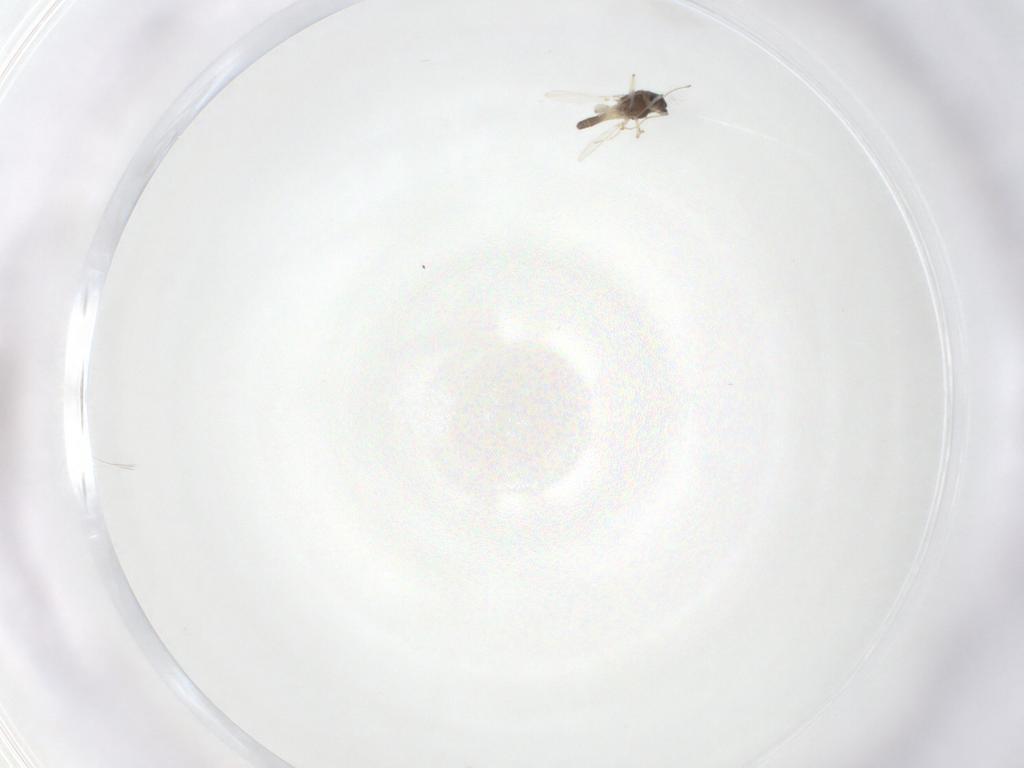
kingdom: Animalia
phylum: Arthropoda
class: Insecta
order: Diptera
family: Chironomidae
